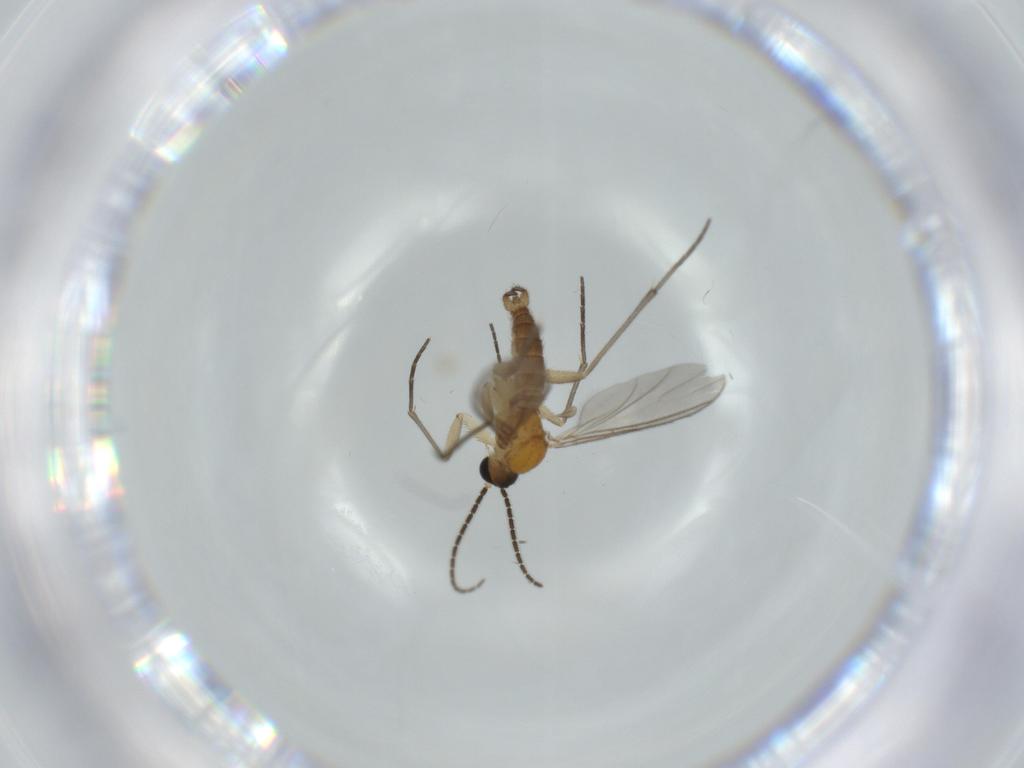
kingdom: Animalia
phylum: Arthropoda
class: Insecta
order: Diptera
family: Sciaridae
